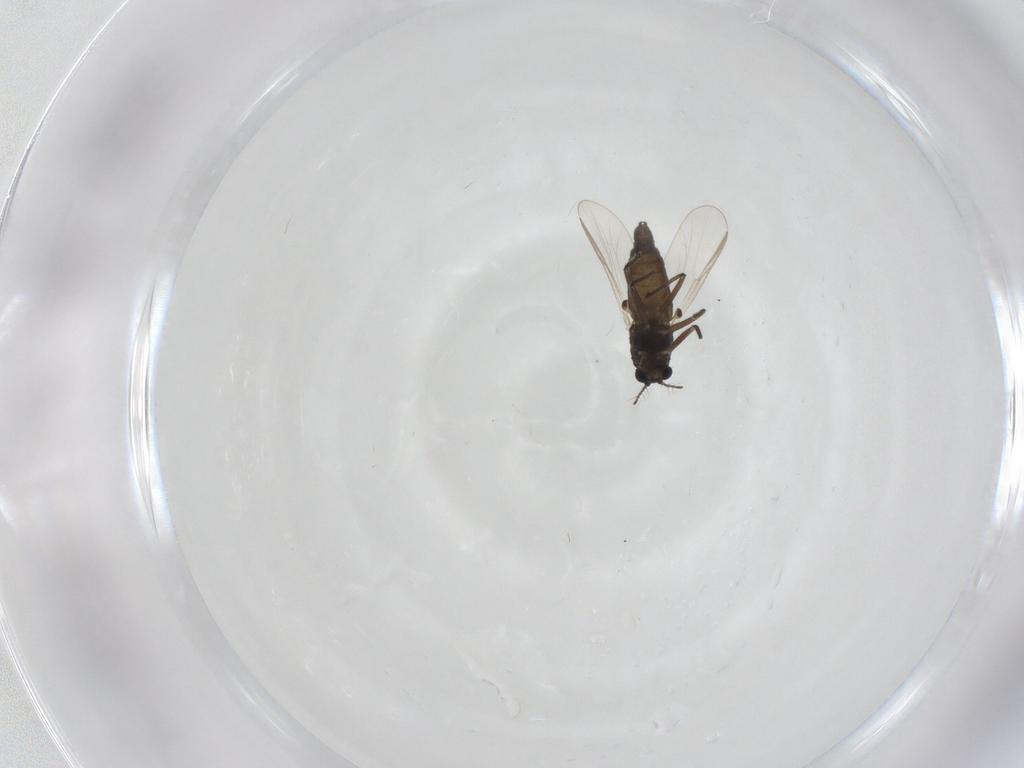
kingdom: Animalia
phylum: Arthropoda
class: Insecta
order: Diptera
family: Chironomidae
